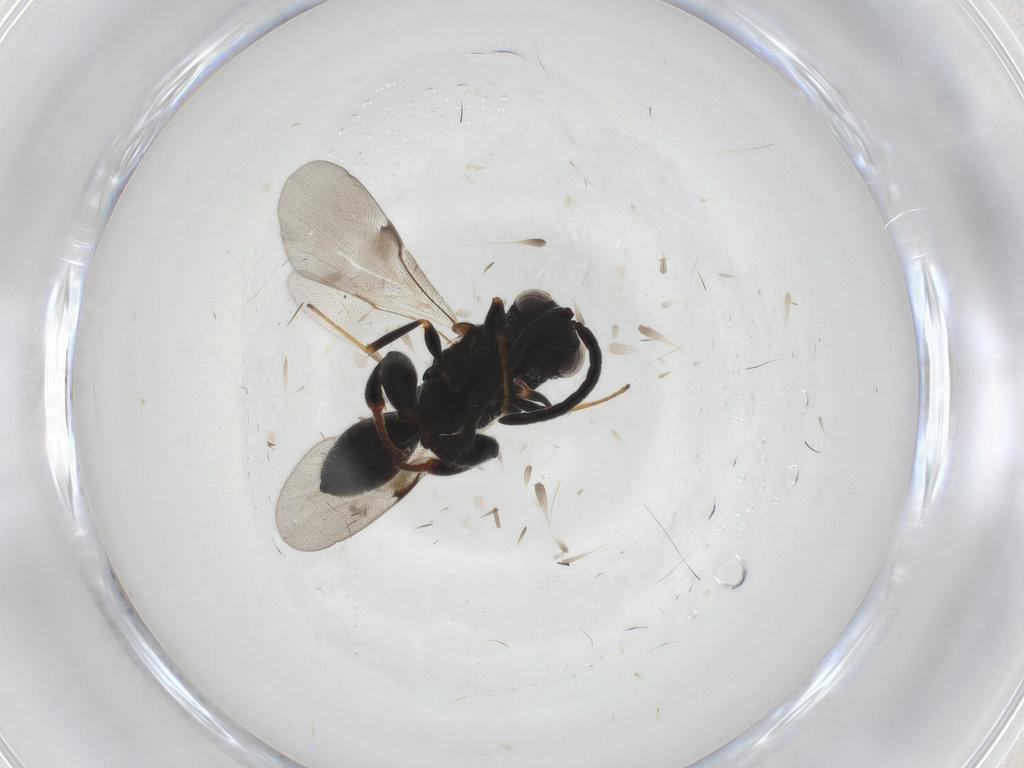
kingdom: Animalia
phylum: Arthropoda
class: Insecta
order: Hymenoptera
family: Chalcididae
